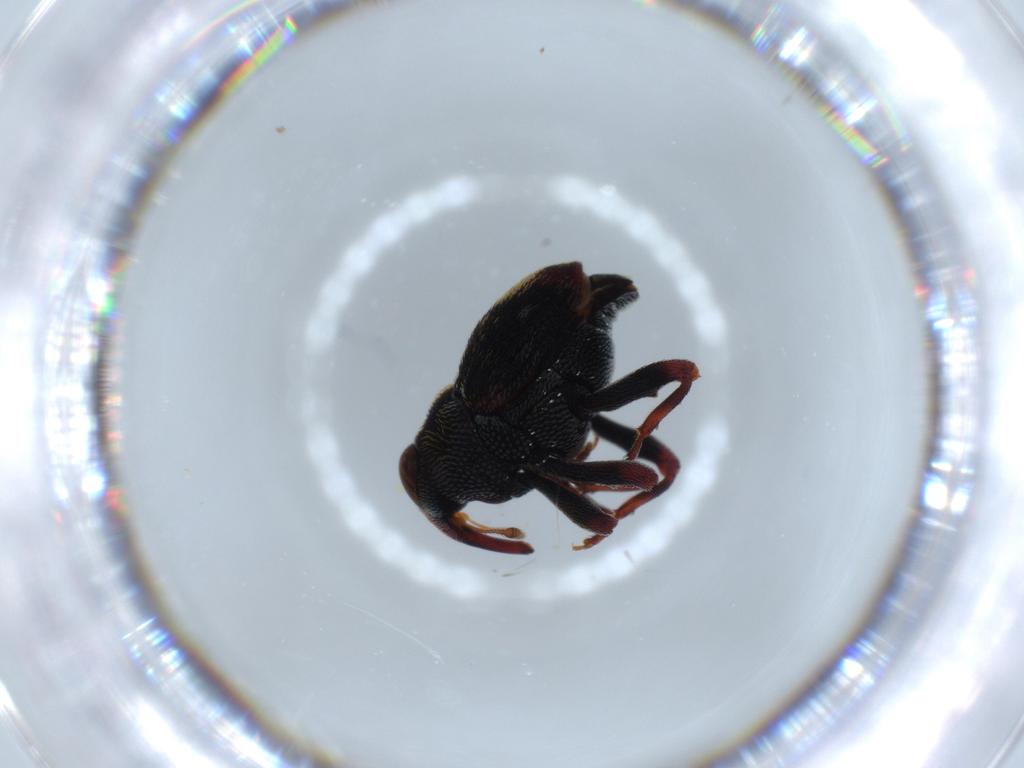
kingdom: Animalia
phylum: Arthropoda
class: Insecta
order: Coleoptera
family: Curculionidae
